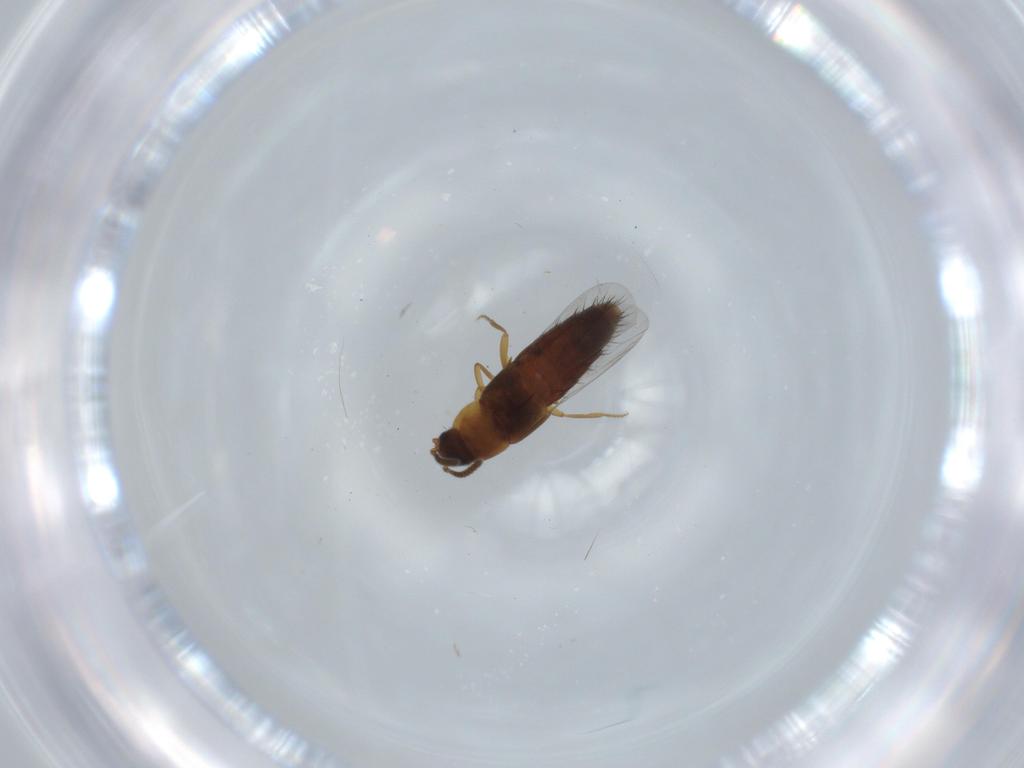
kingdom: Animalia
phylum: Arthropoda
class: Insecta
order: Coleoptera
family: Staphylinidae
